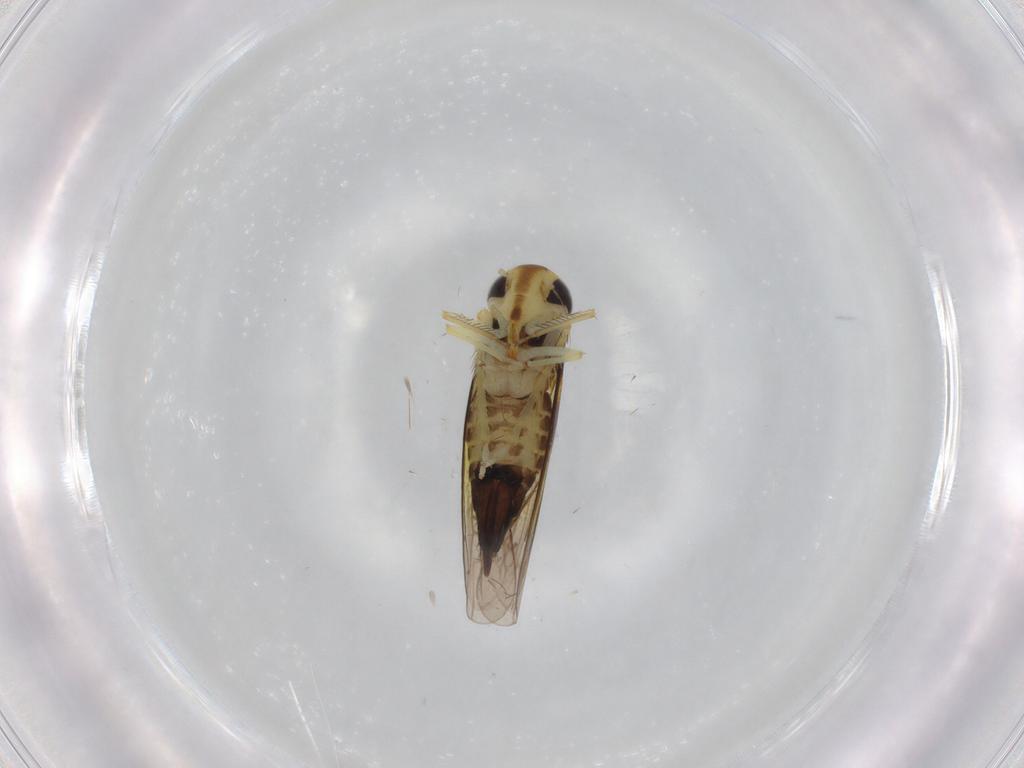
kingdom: Animalia
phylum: Arthropoda
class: Insecta
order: Hemiptera
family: Cicadellidae
